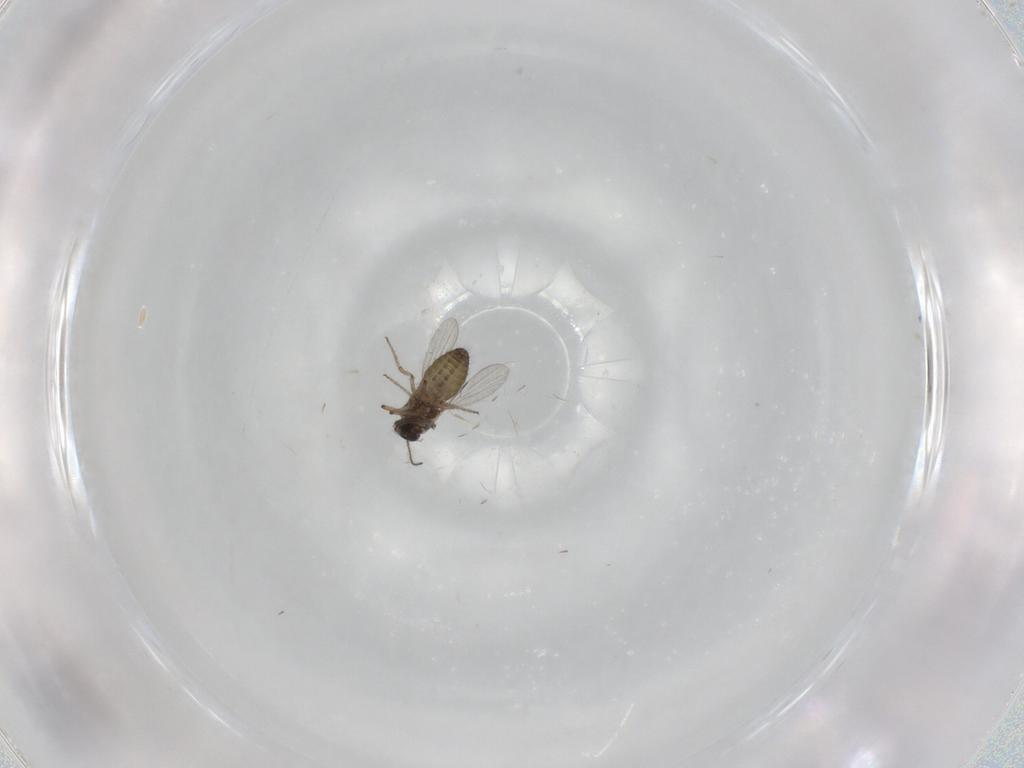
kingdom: Animalia
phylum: Arthropoda
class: Insecta
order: Diptera
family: Ceratopogonidae
